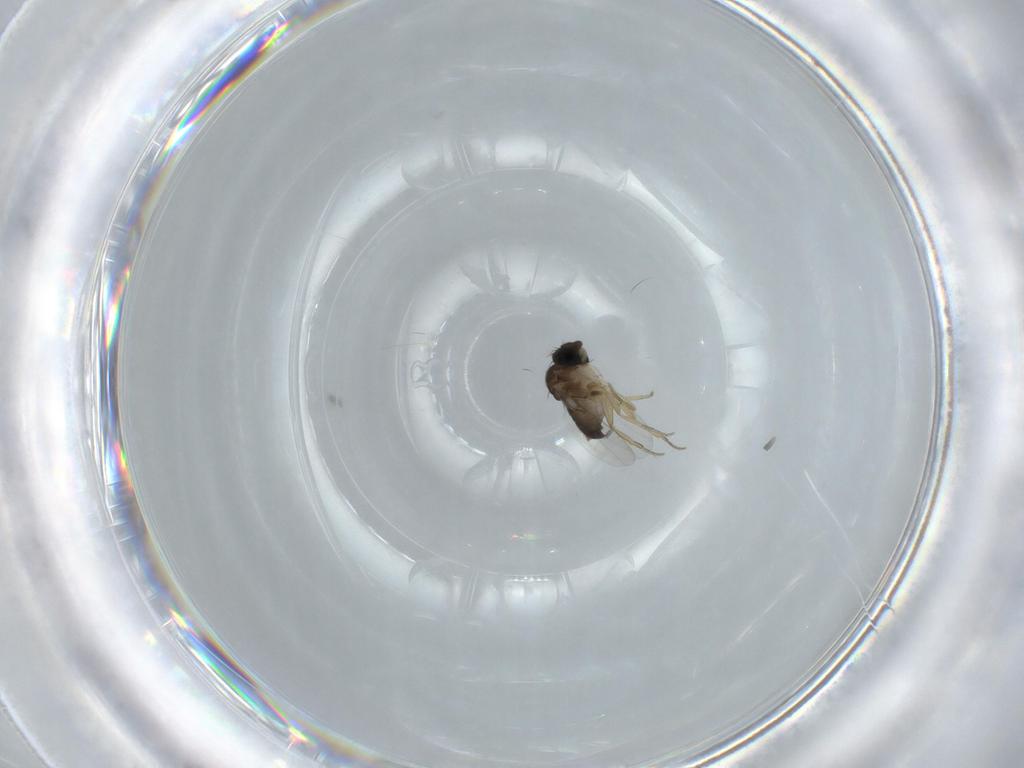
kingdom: Animalia
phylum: Arthropoda
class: Insecta
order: Diptera
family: Phoridae
